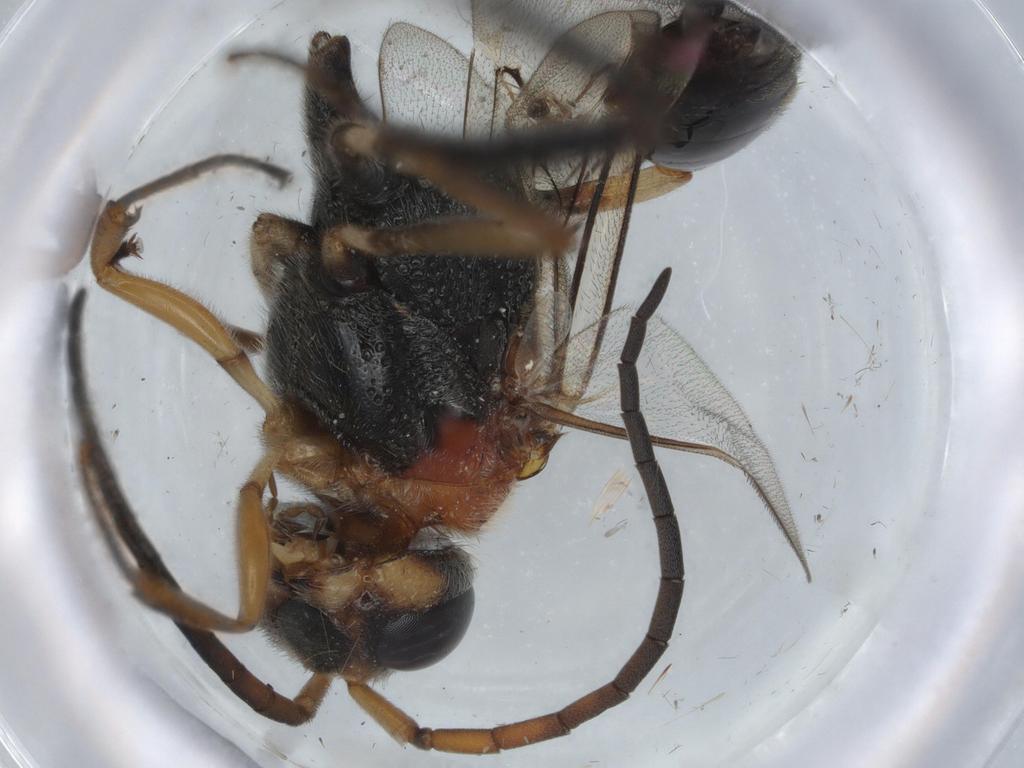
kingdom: Animalia
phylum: Arthropoda
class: Insecta
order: Hymenoptera
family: Evaniidae
